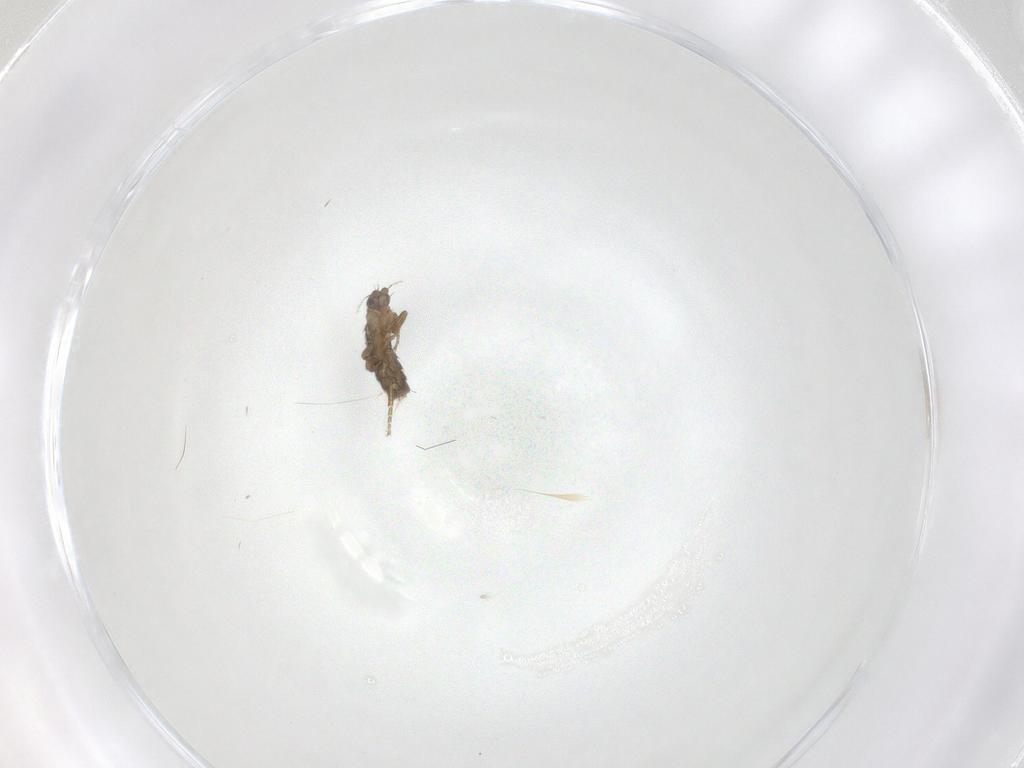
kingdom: Animalia
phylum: Arthropoda
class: Insecta
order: Diptera
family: Phoridae
